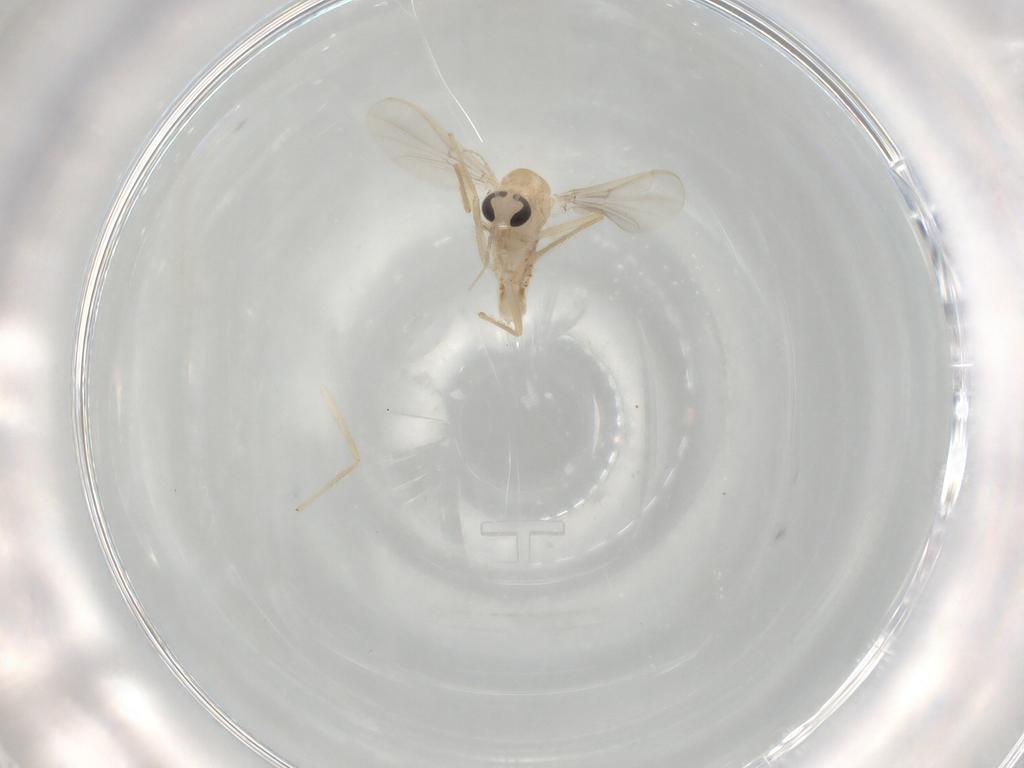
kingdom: Animalia
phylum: Arthropoda
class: Insecta
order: Diptera
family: Chironomidae
